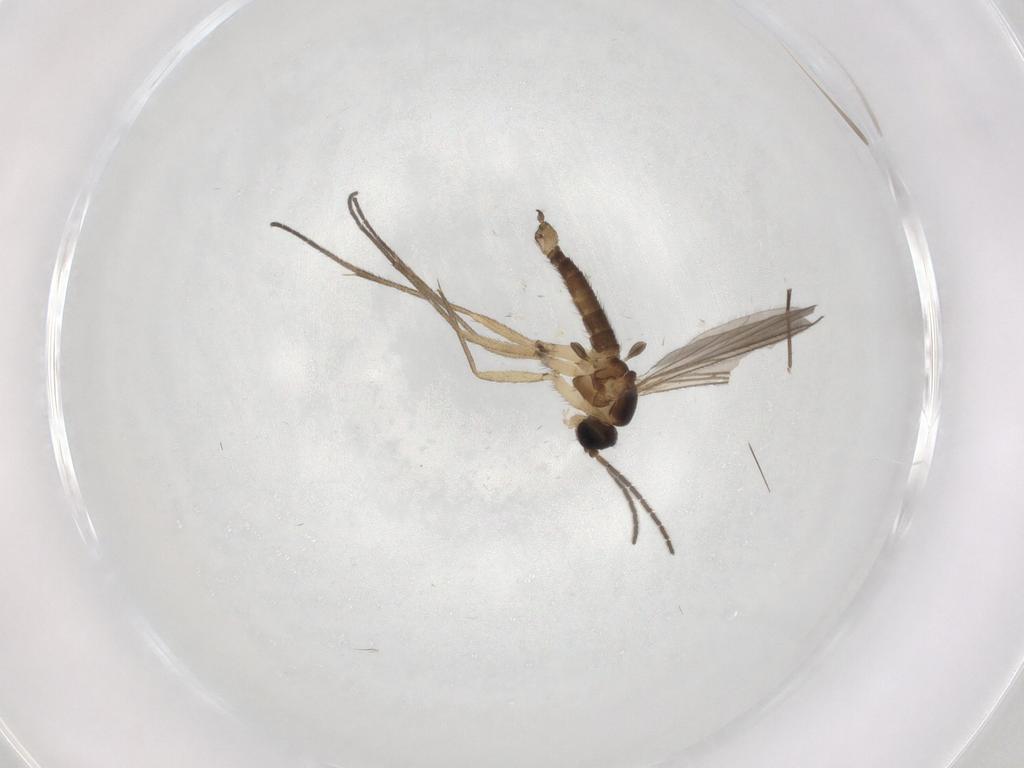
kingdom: Animalia
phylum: Arthropoda
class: Insecta
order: Diptera
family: Sciaridae
